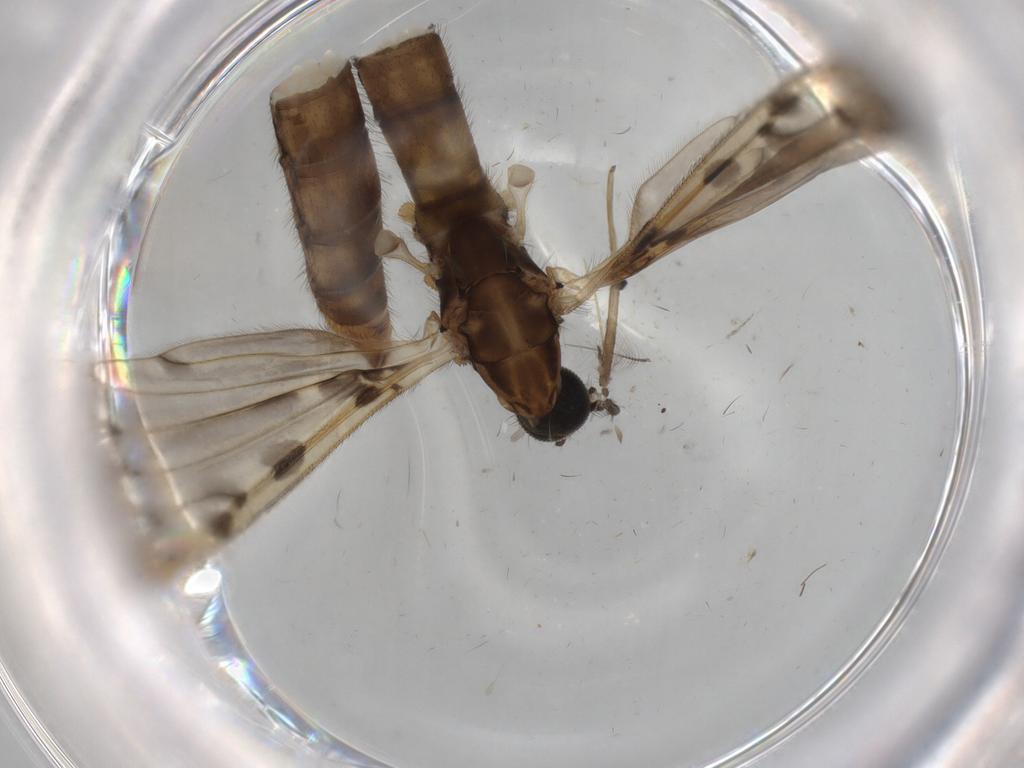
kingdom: Animalia
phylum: Arthropoda
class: Insecta
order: Diptera
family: Limoniidae
